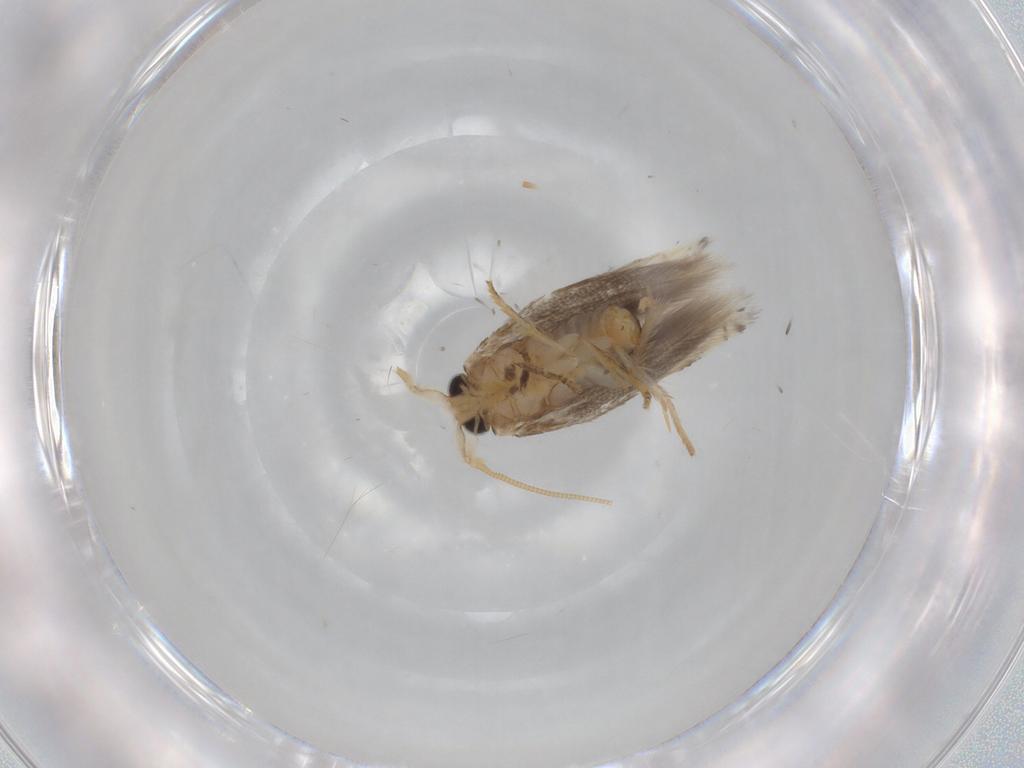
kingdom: Animalia
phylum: Arthropoda
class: Insecta
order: Lepidoptera
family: Opostegidae
